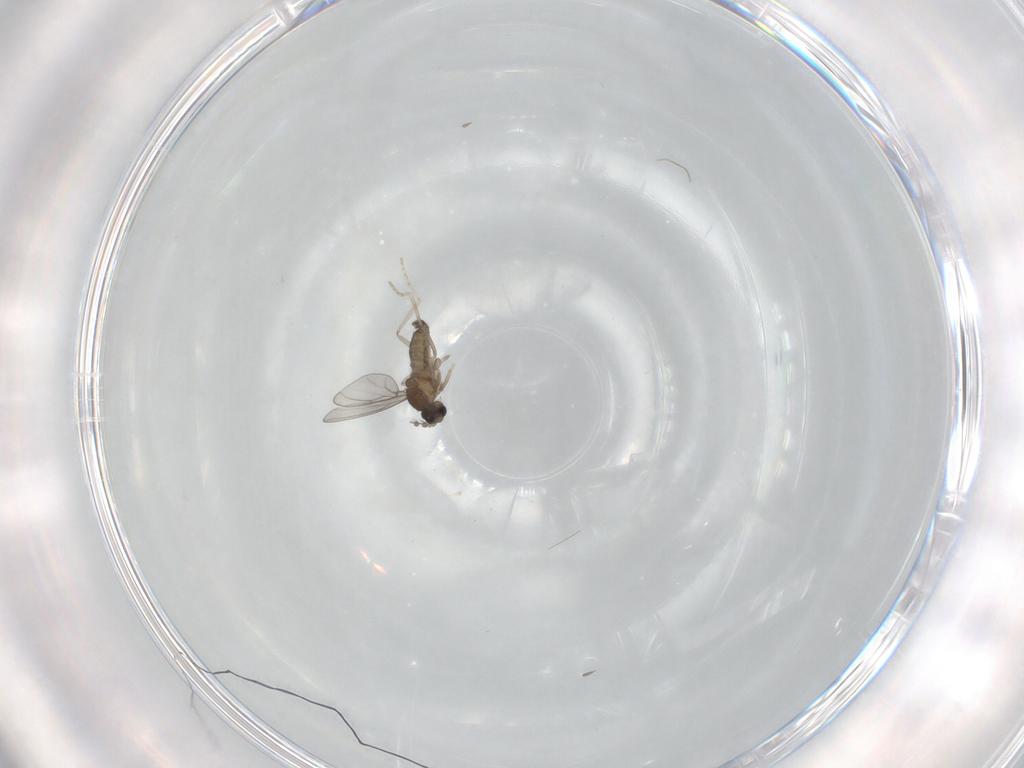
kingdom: Animalia
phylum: Arthropoda
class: Insecta
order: Diptera
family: Cecidomyiidae
